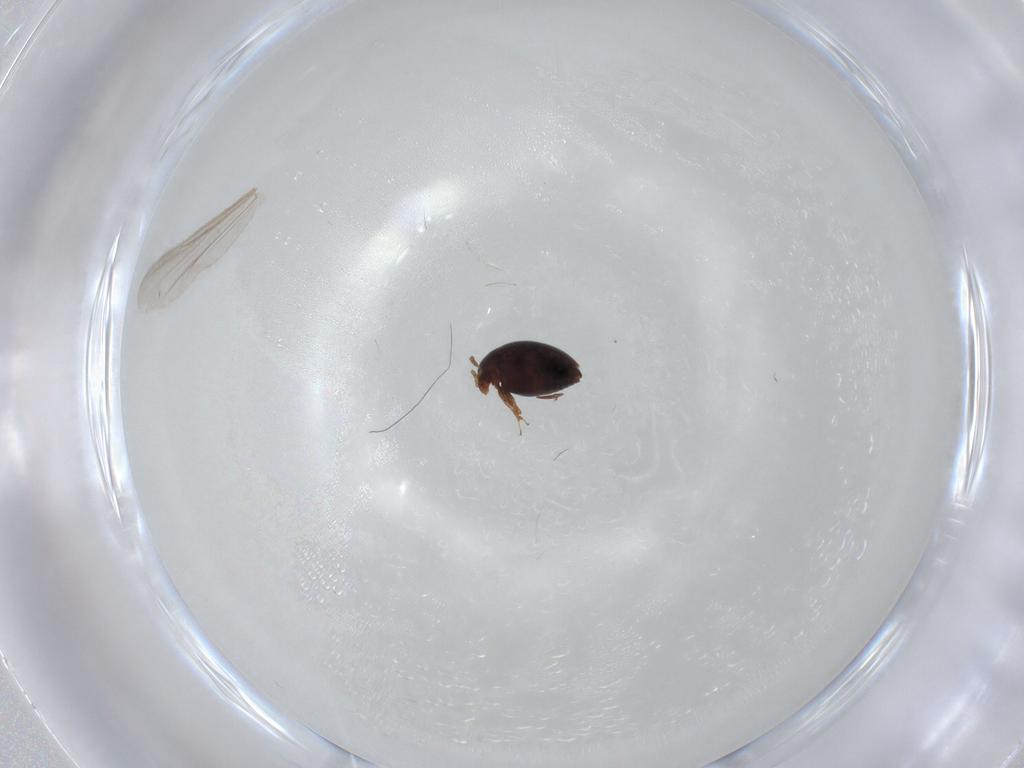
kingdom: Animalia
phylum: Arthropoda
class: Insecta
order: Coleoptera
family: Corylophidae
